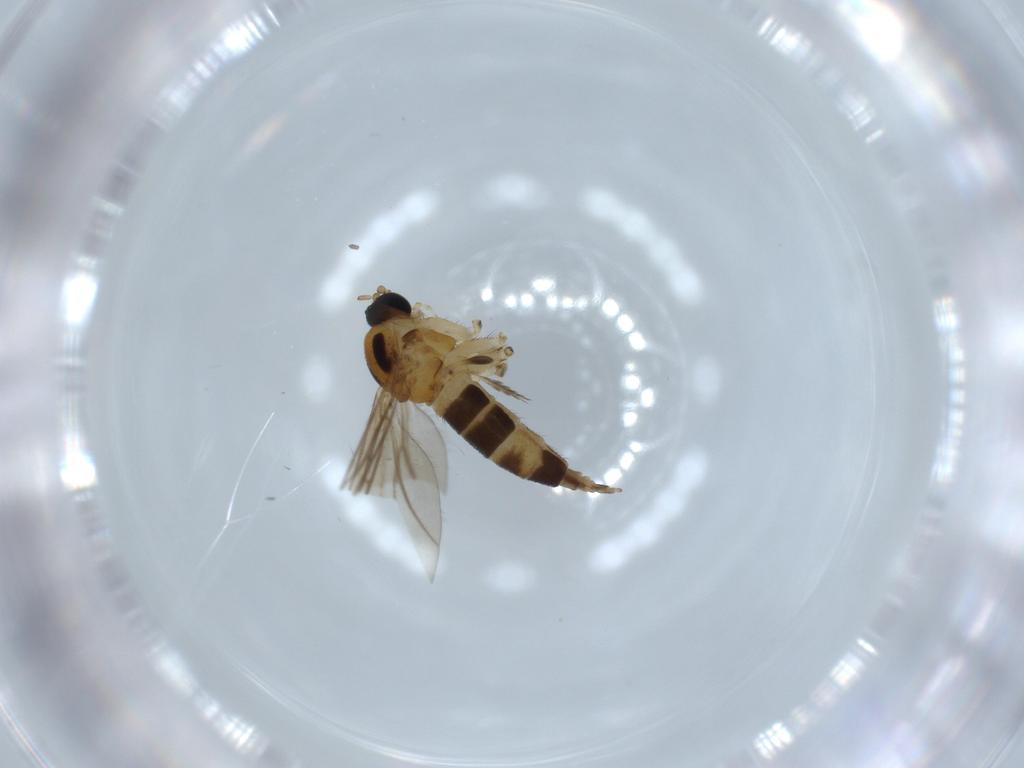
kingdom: Animalia
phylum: Arthropoda
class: Insecta
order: Diptera
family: Sciaridae
